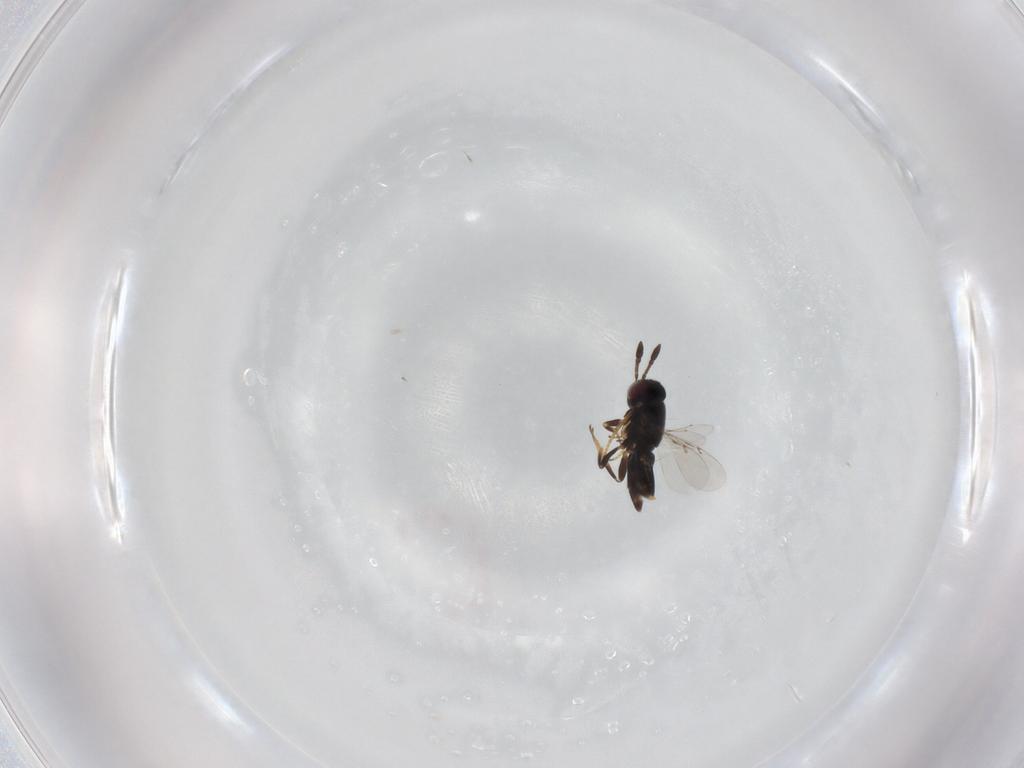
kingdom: Animalia
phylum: Arthropoda
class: Insecta
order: Hymenoptera
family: Aphelinidae
